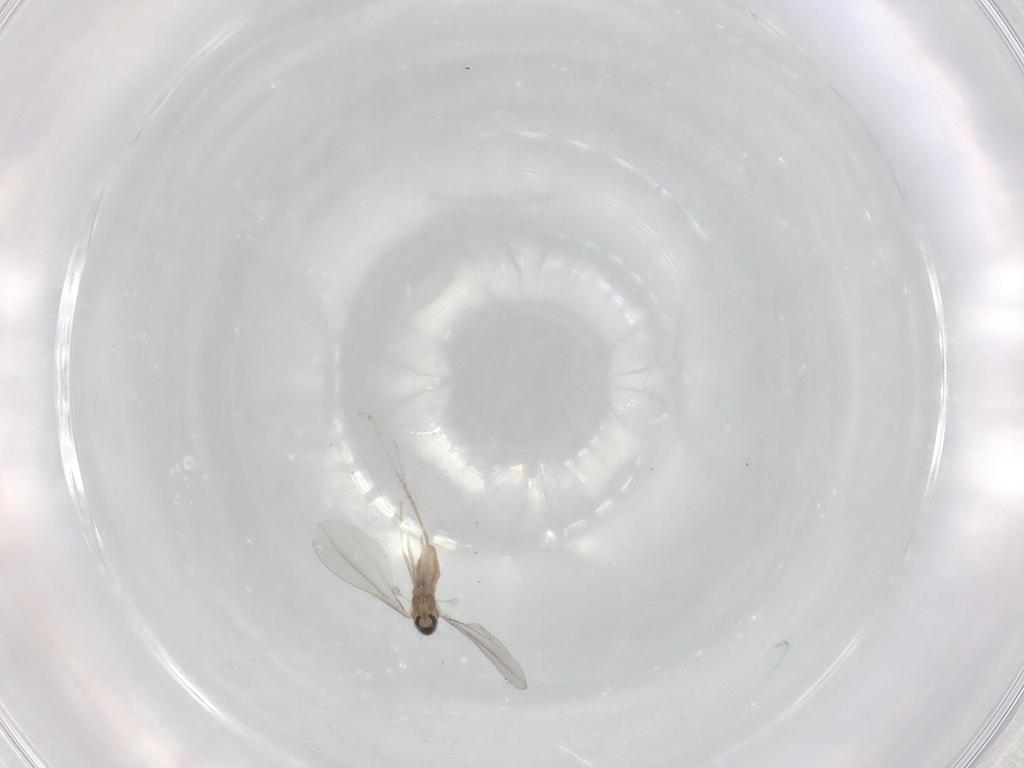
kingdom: Animalia
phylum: Arthropoda
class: Insecta
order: Diptera
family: Cecidomyiidae
